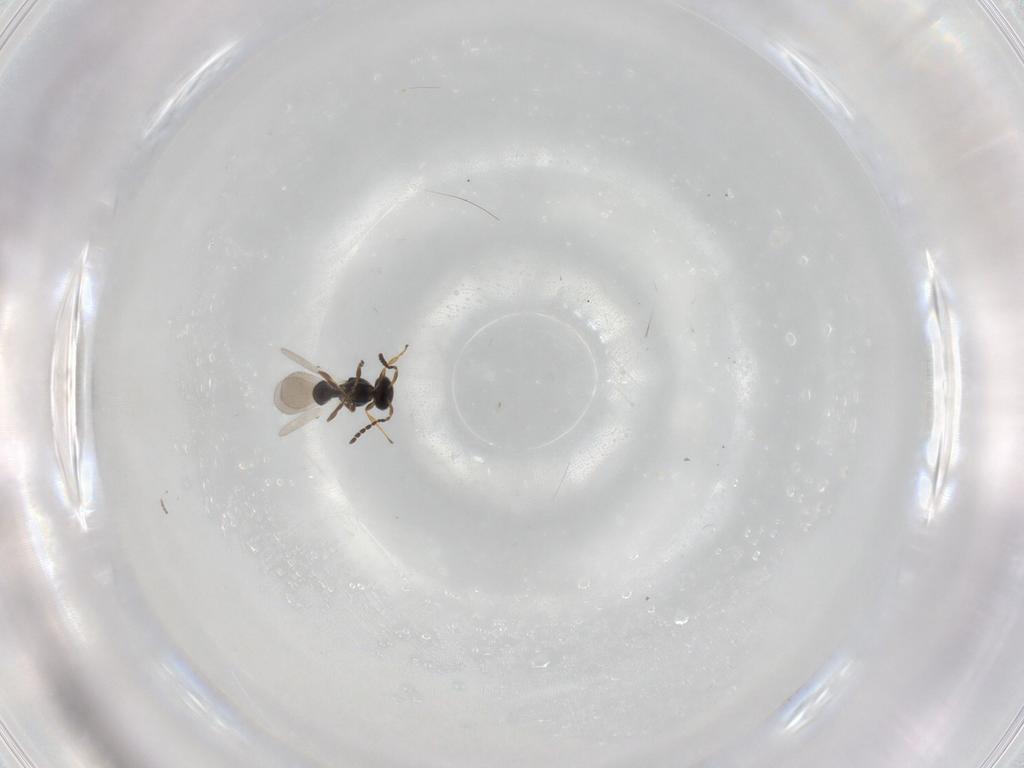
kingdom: Animalia
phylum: Arthropoda
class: Insecta
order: Hymenoptera
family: Platygastridae
